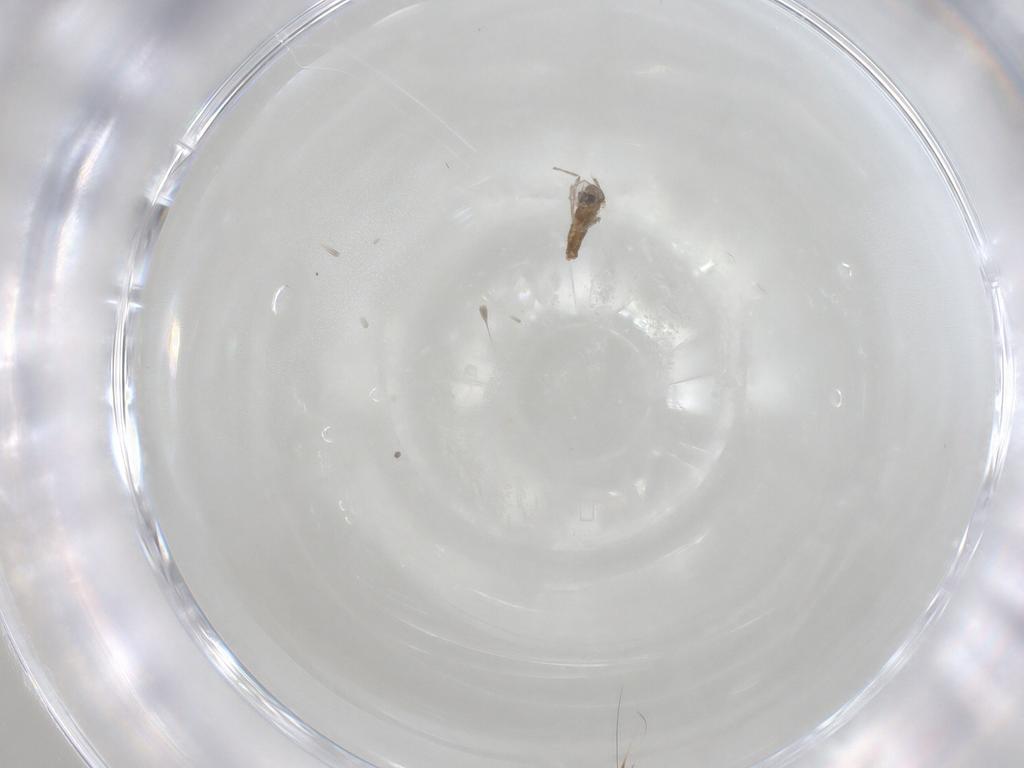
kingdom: Animalia
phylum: Arthropoda
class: Insecta
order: Diptera
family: Chironomidae
